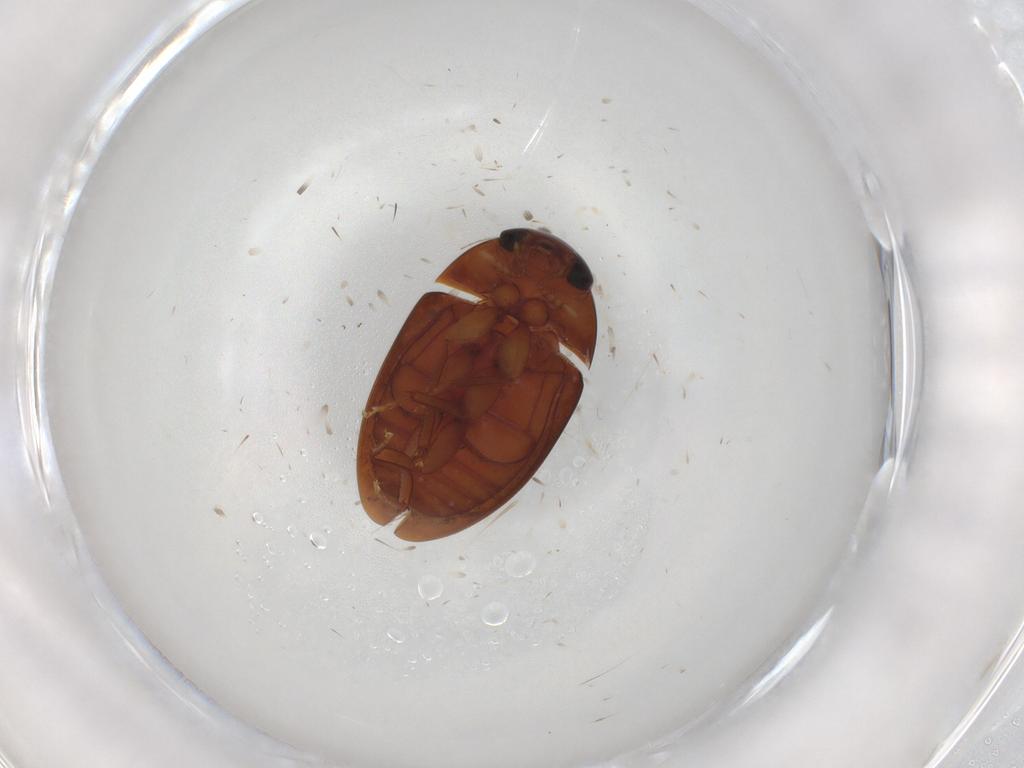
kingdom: Animalia
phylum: Arthropoda
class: Insecta
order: Coleoptera
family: Phalacridae
